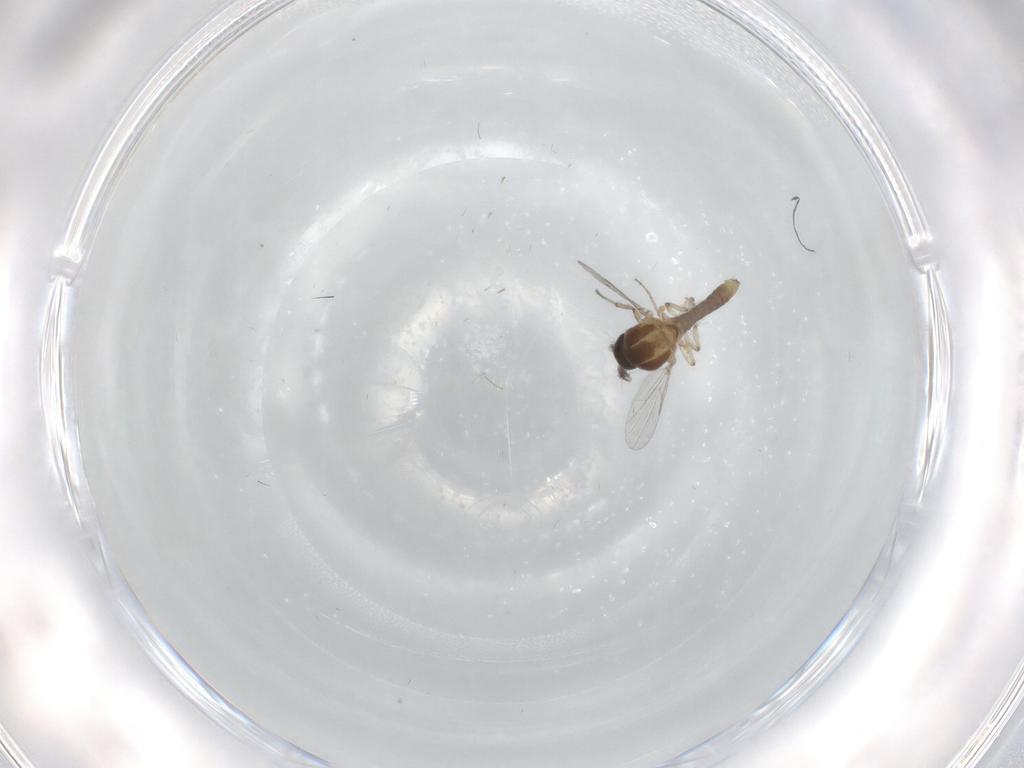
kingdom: Animalia
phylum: Arthropoda
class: Insecta
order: Diptera
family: Ceratopogonidae
